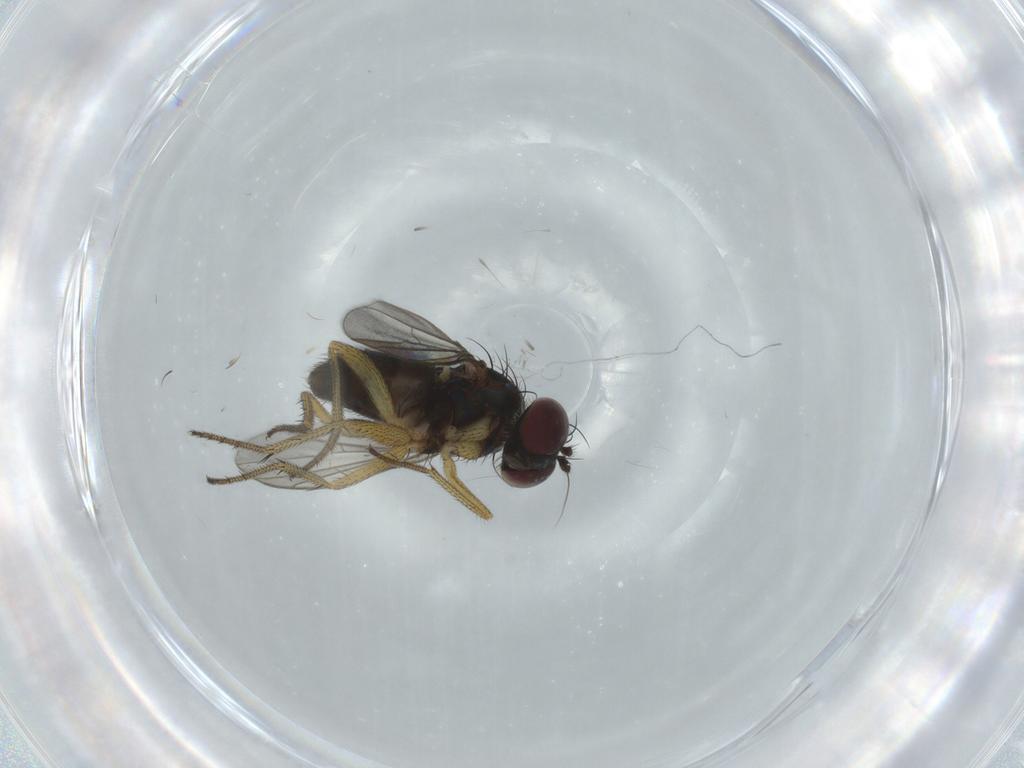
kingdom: Animalia
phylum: Arthropoda
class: Insecta
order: Diptera
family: Dolichopodidae
